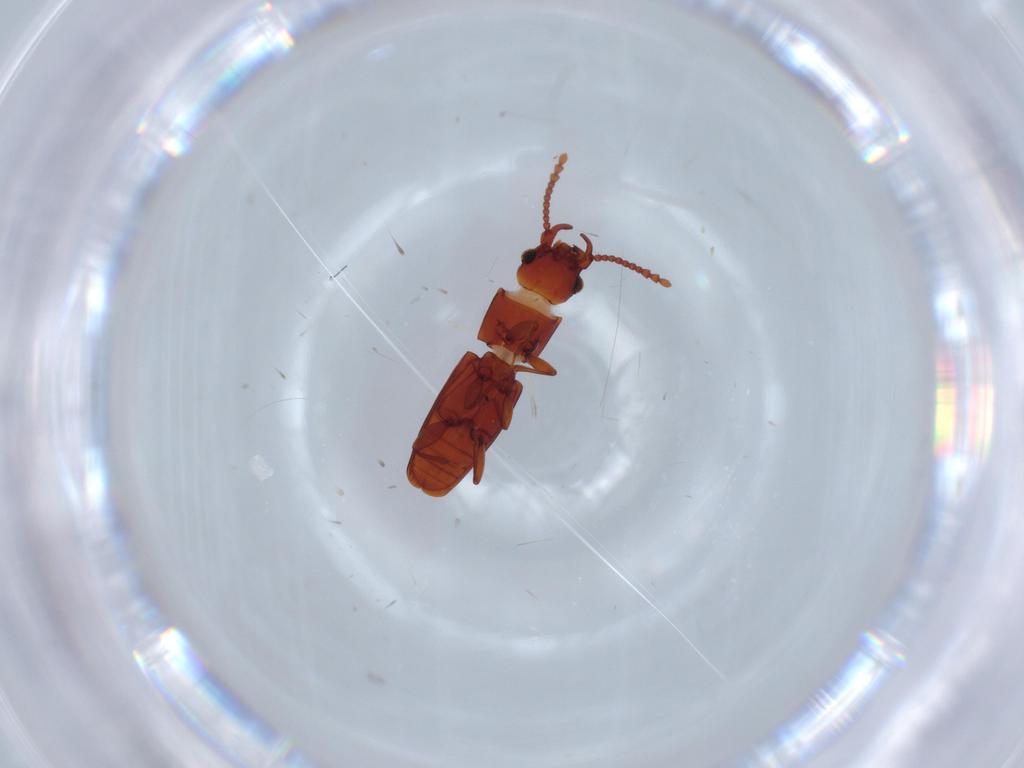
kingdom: Animalia
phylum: Arthropoda
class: Insecta
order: Coleoptera
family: Laemophloeidae
